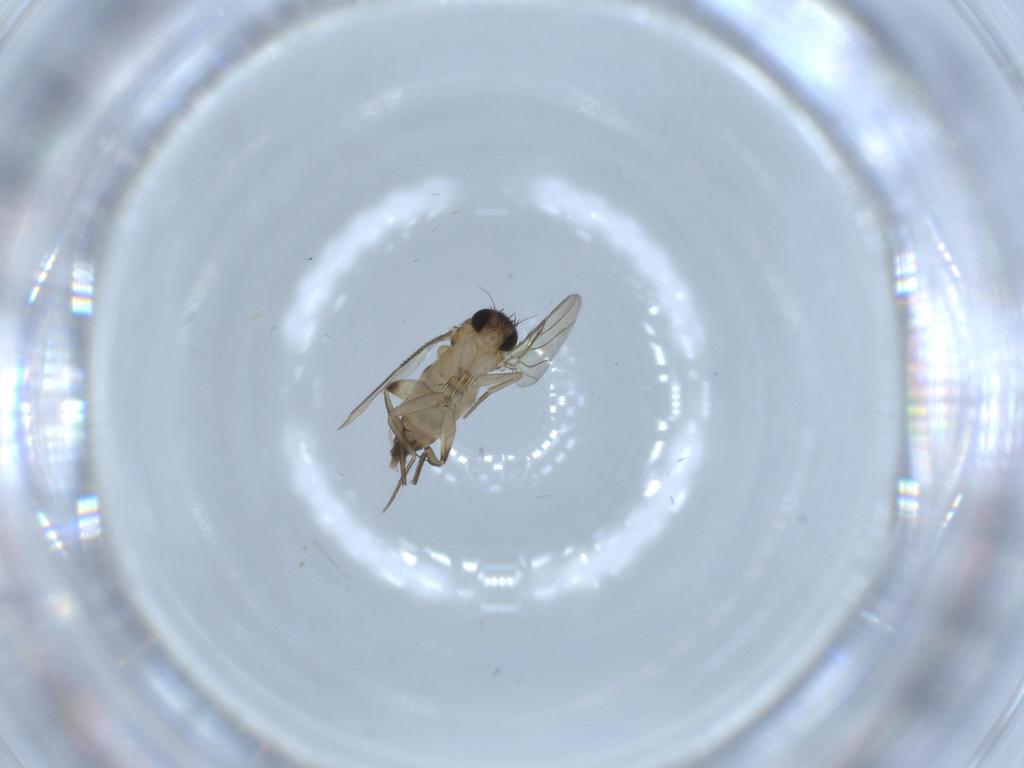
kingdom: Animalia
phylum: Arthropoda
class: Insecta
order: Diptera
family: Phoridae
